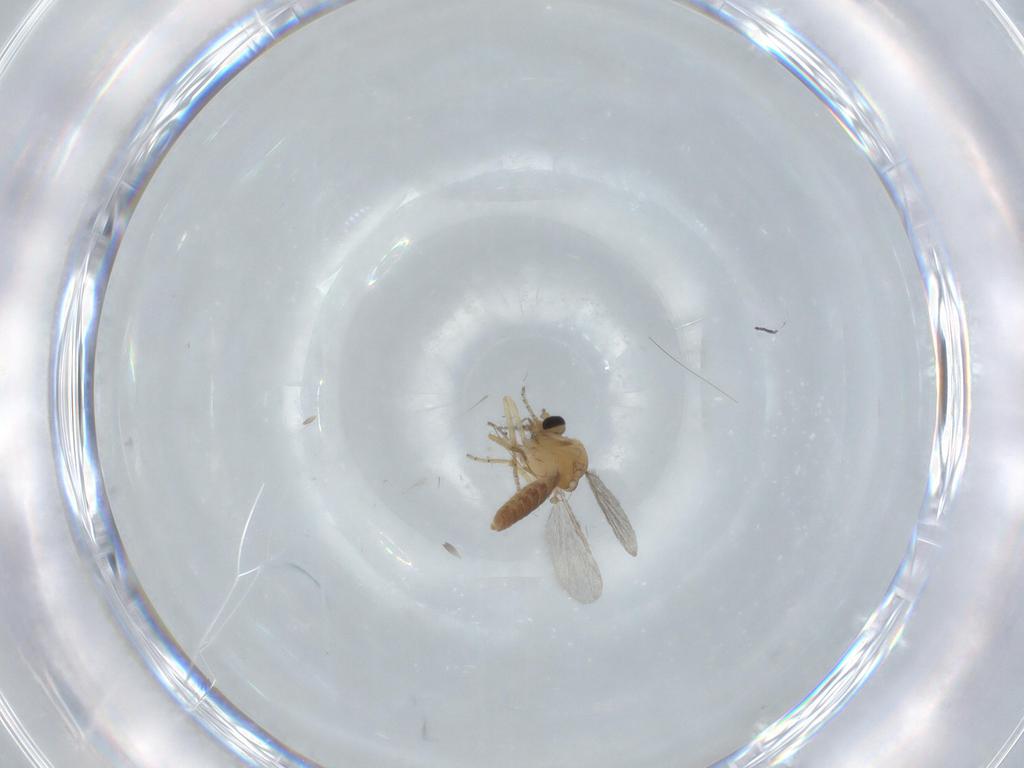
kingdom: Animalia
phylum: Arthropoda
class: Insecta
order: Diptera
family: Ceratopogonidae
